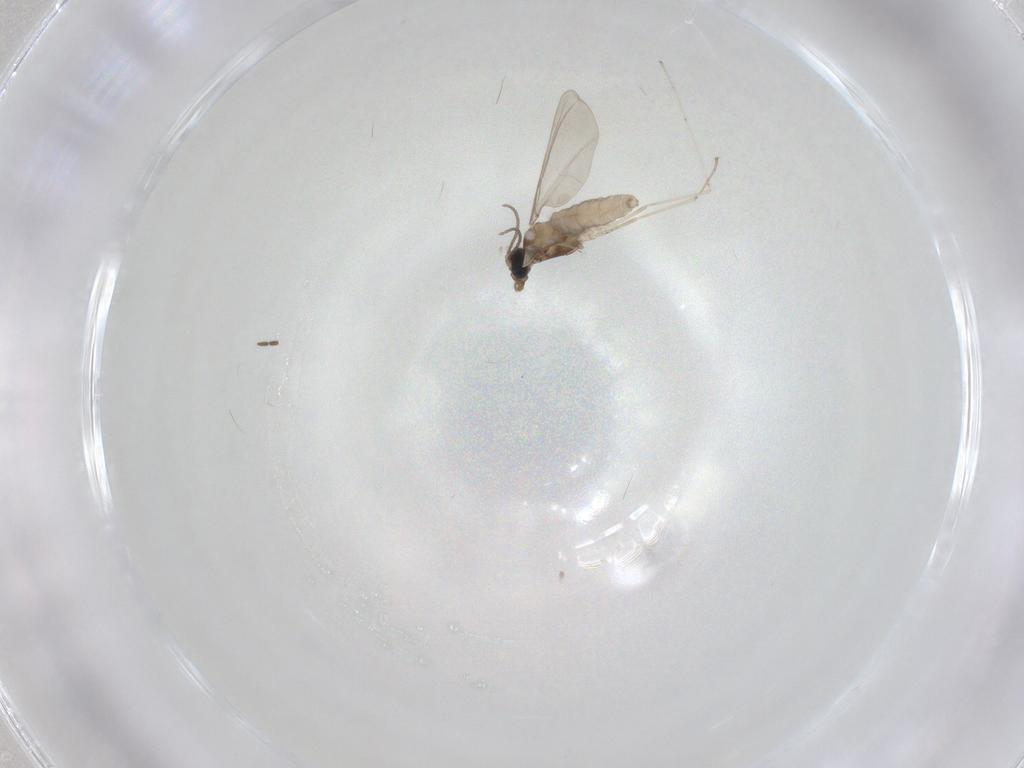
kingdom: Animalia
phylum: Arthropoda
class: Insecta
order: Diptera
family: Cecidomyiidae
